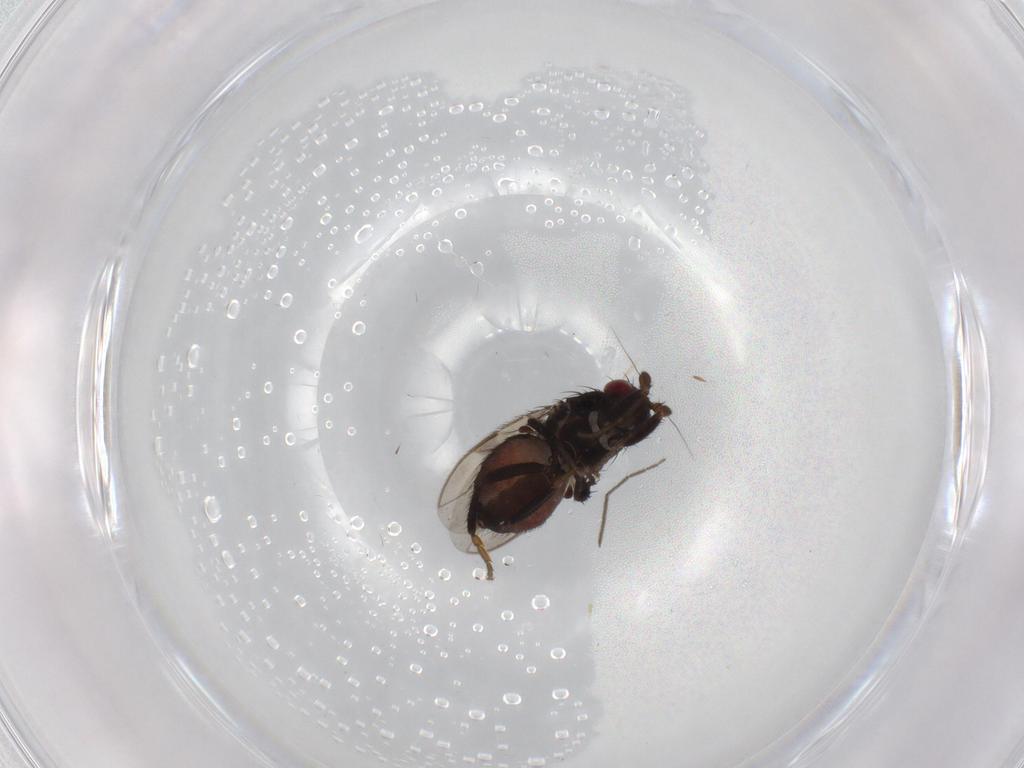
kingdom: Animalia
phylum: Arthropoda
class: Insecta
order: Diptera
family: Sphaeroceridae
